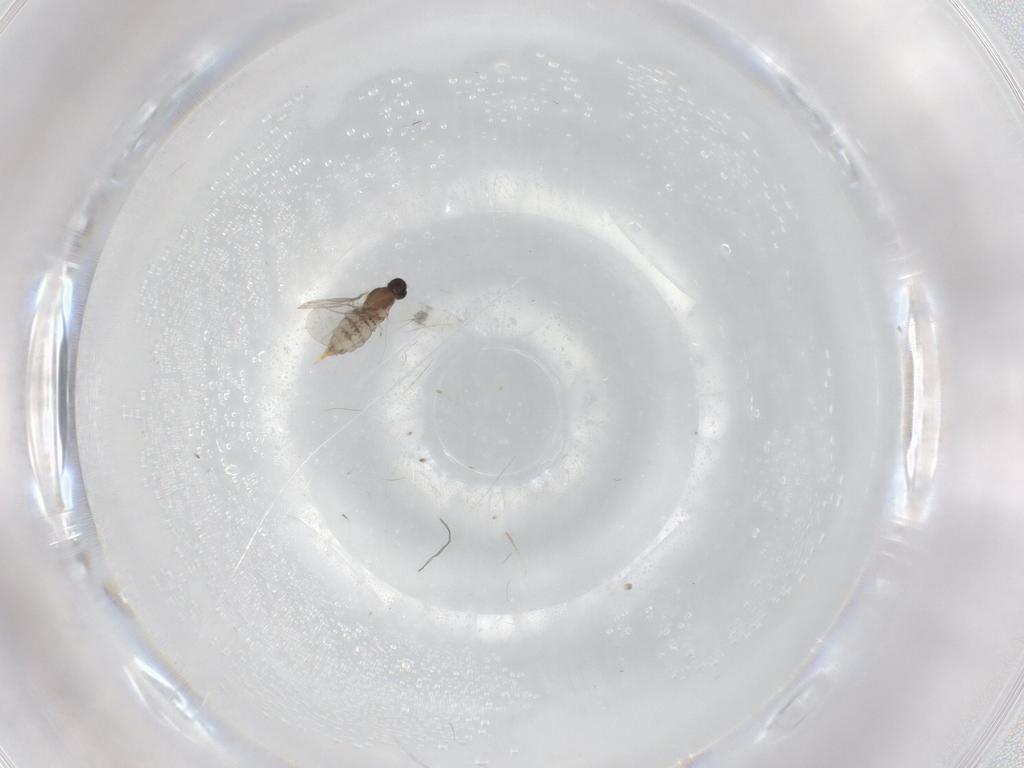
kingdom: Animalia
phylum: Arthropoda
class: Insecta
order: Diptera
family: Cecidomyiidae
